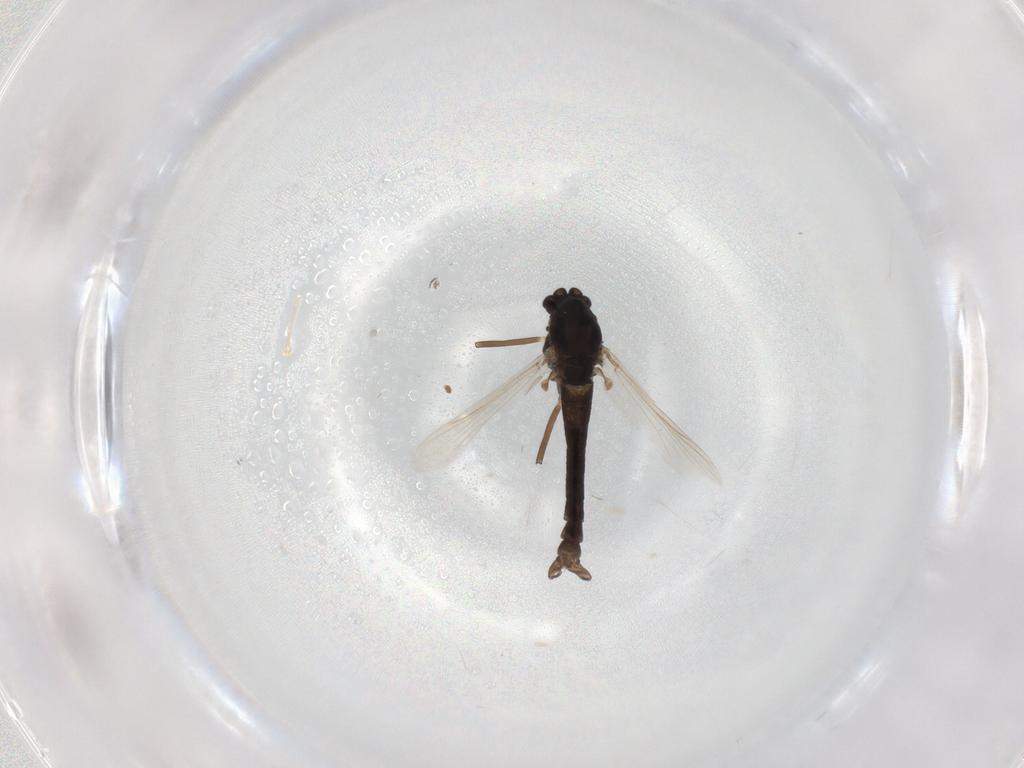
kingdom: Animalia
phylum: Arthropoda
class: Insecta
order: Diptera
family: Chironomidae
